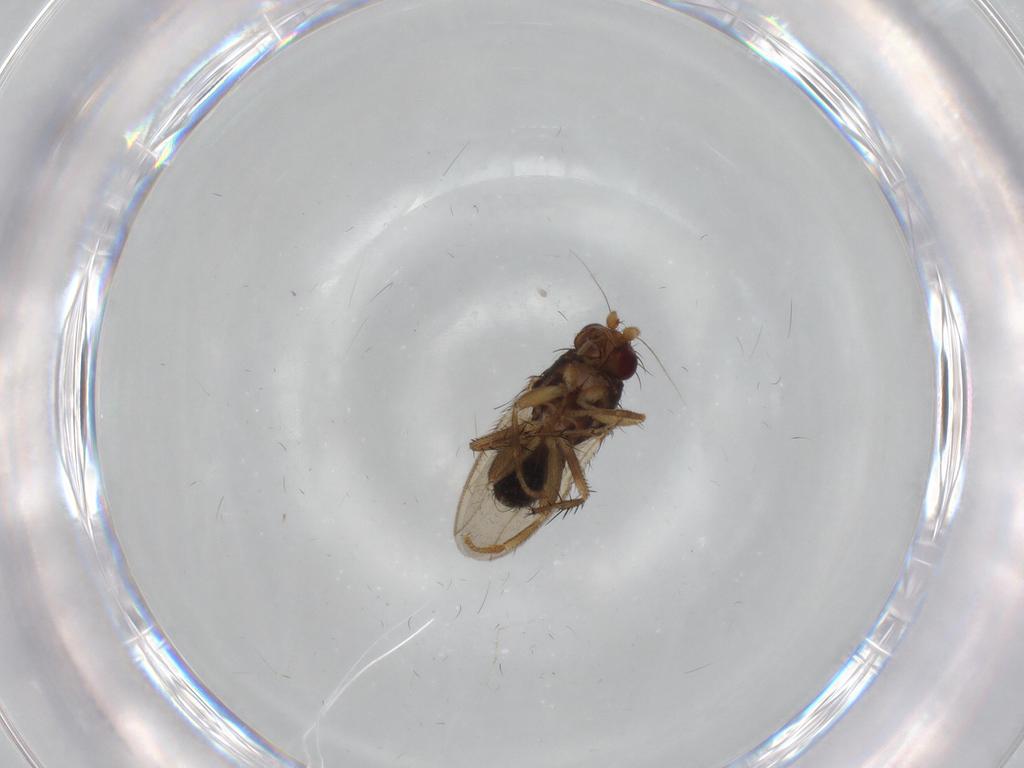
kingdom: Animalia
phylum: Arthropoda
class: Insecta
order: Diptera
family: Sphaeroceridae
